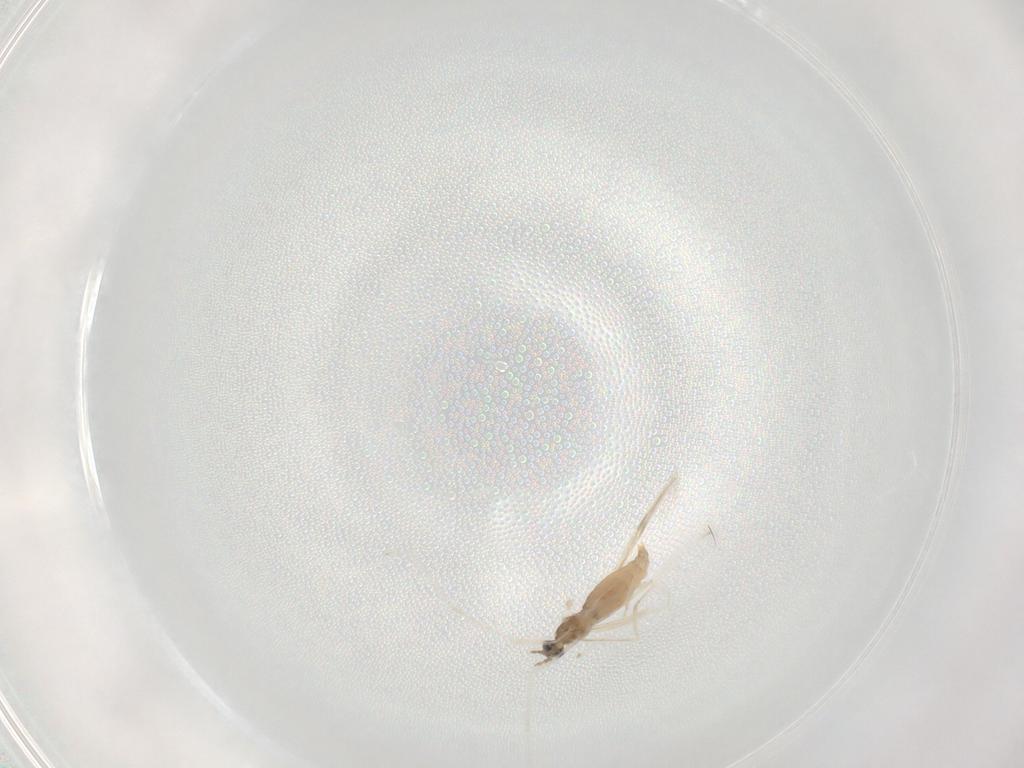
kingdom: Animalia
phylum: Arthropoda
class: Insecta
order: Diptera
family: Cecidomyiidae
